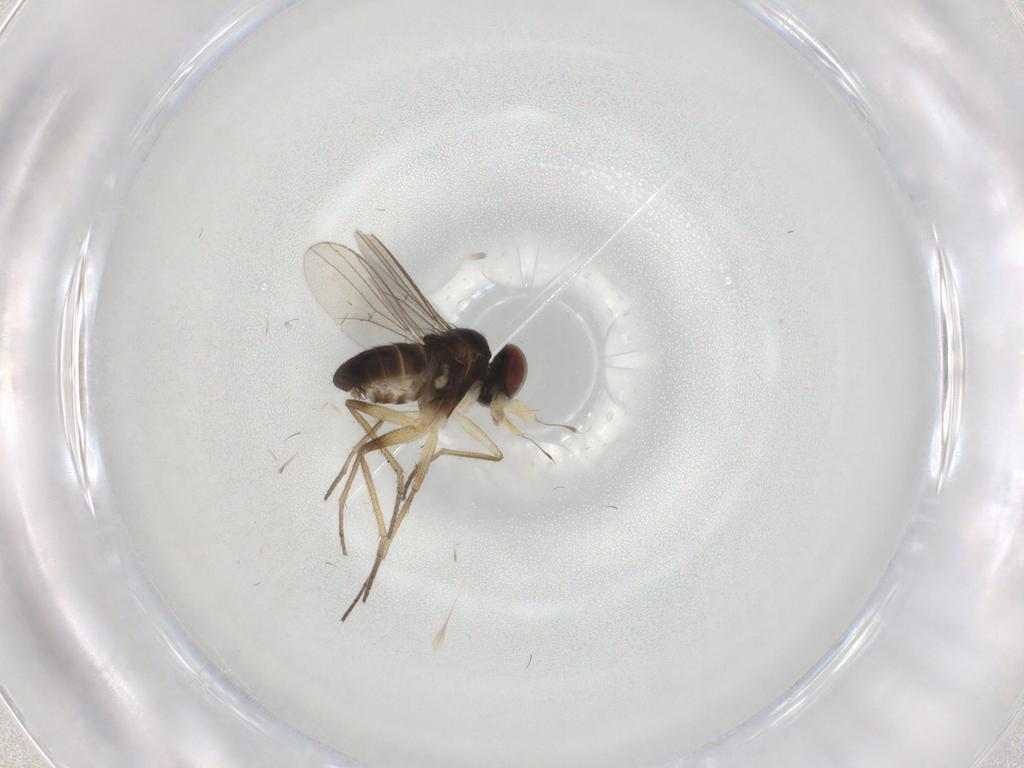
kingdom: Animalia
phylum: Arthropoda
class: Insecta
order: Diptera
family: Dolichopodidae
